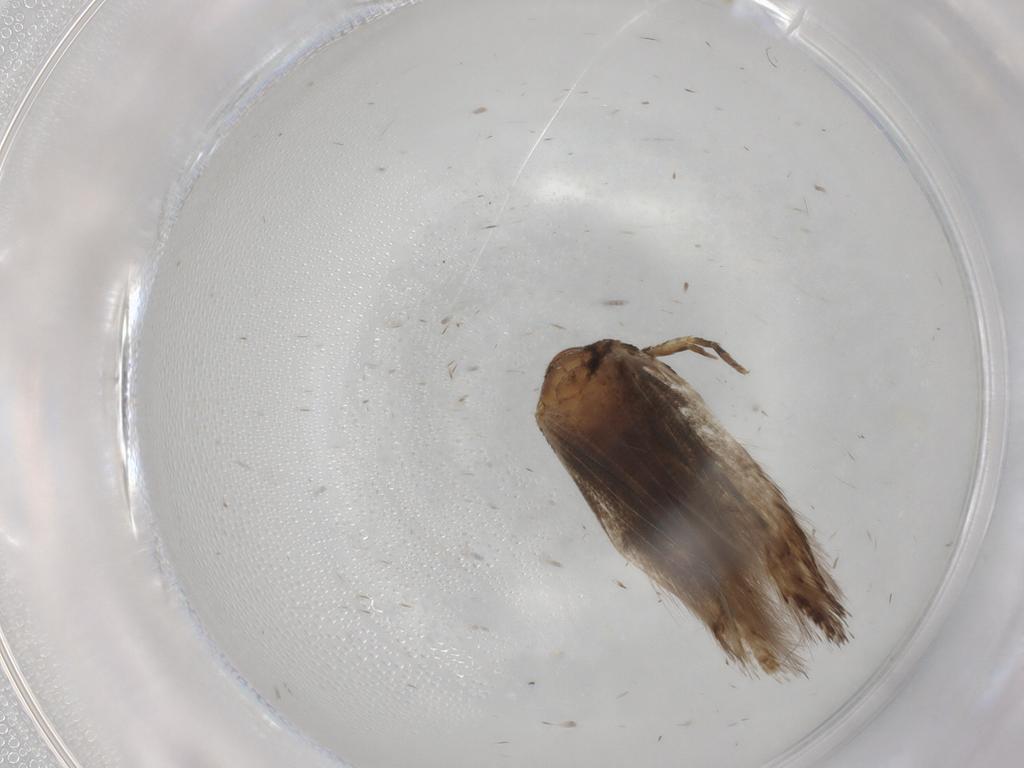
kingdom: Animalia
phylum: Arthropoda
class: Insecta
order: Lepidoptera
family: Cosmopterigidae
